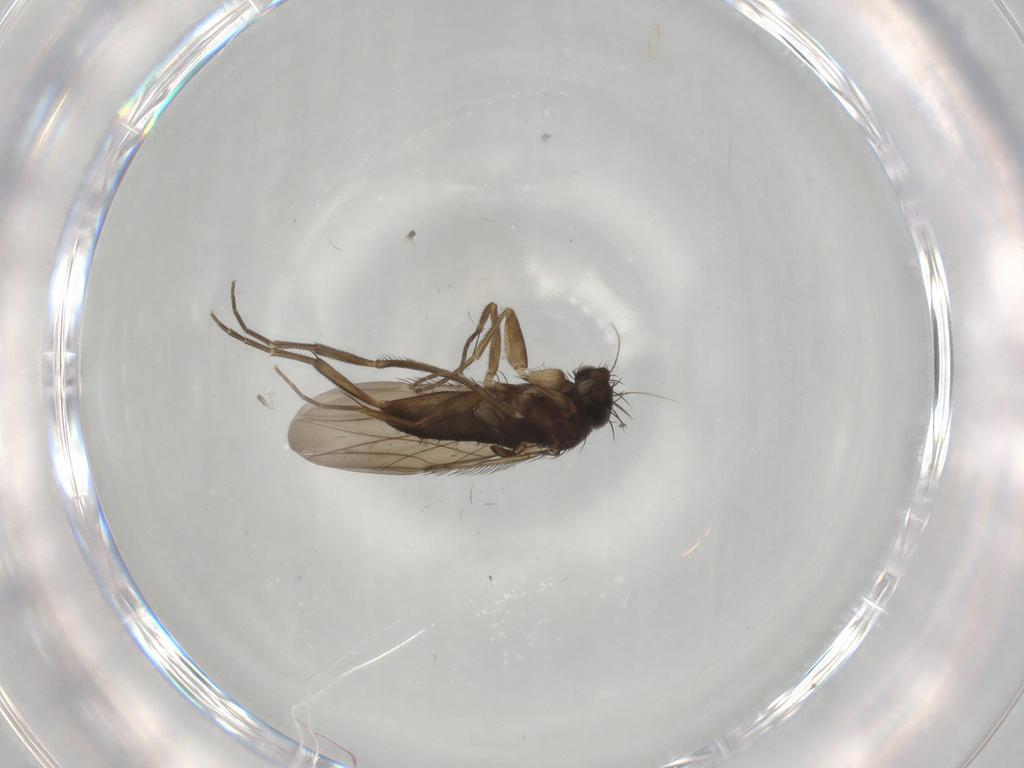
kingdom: Animalia
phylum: Arthropoda
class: Insecta
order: Diptera
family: Phoridae
